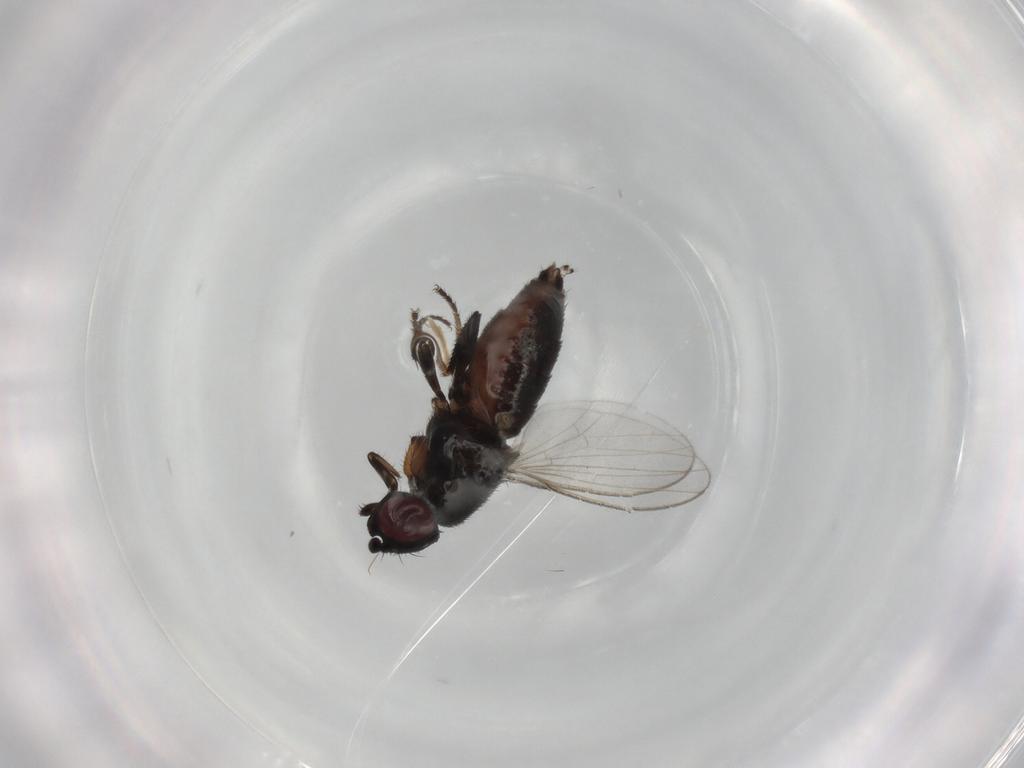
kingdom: Animalia
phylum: Arthropoda
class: Insecta
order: Diptera
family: Milichiidae
